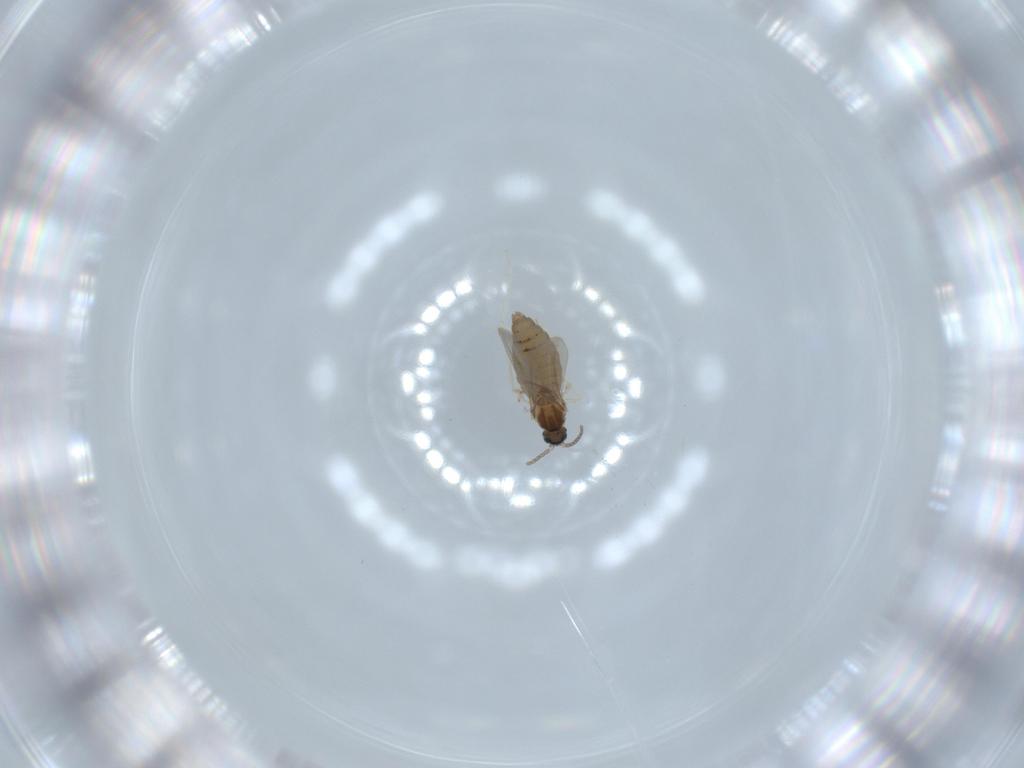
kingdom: Animalia
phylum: Arthropoda
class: Insecta
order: Diptera
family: Cecidomyiidae
